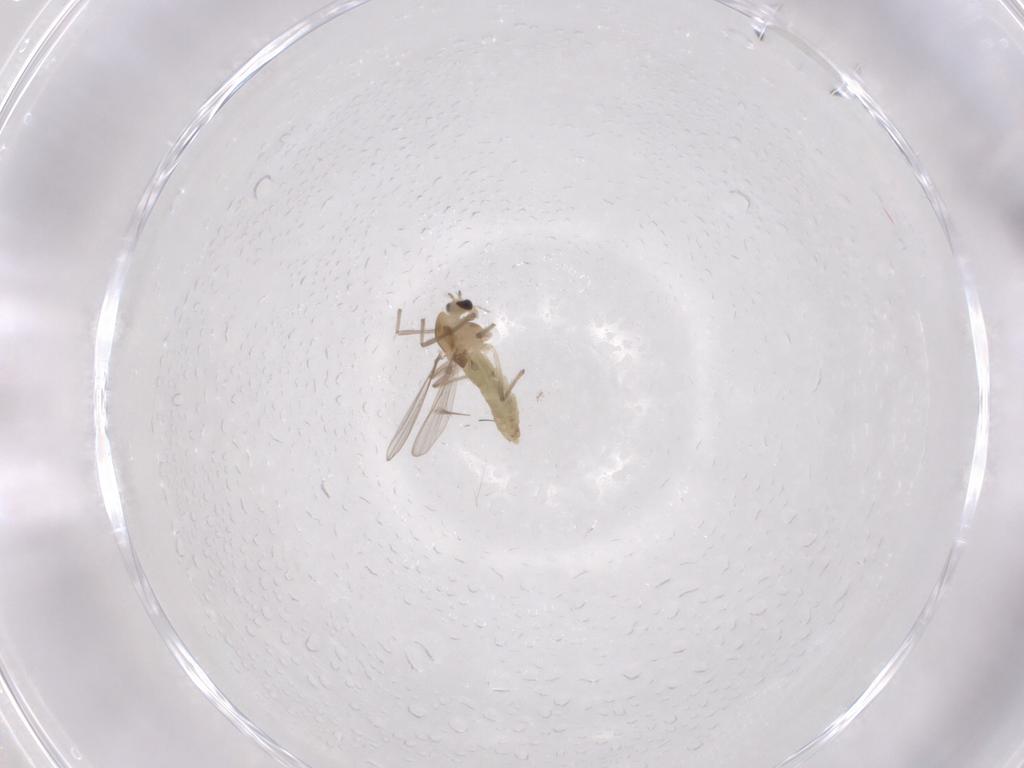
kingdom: Animalia
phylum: Arthropoda
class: Insecta
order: Diptera
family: Chironomidae
